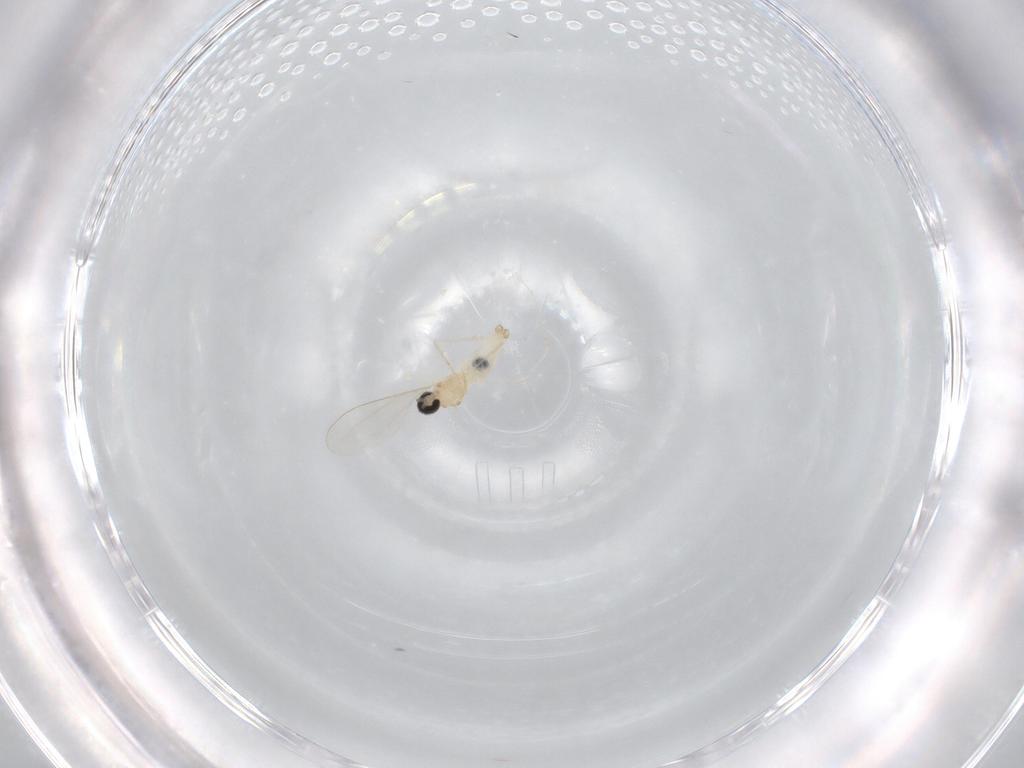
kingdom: Animalia
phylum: Arthropoda
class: Insecta
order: Diptera
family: Cecidomyiidae
